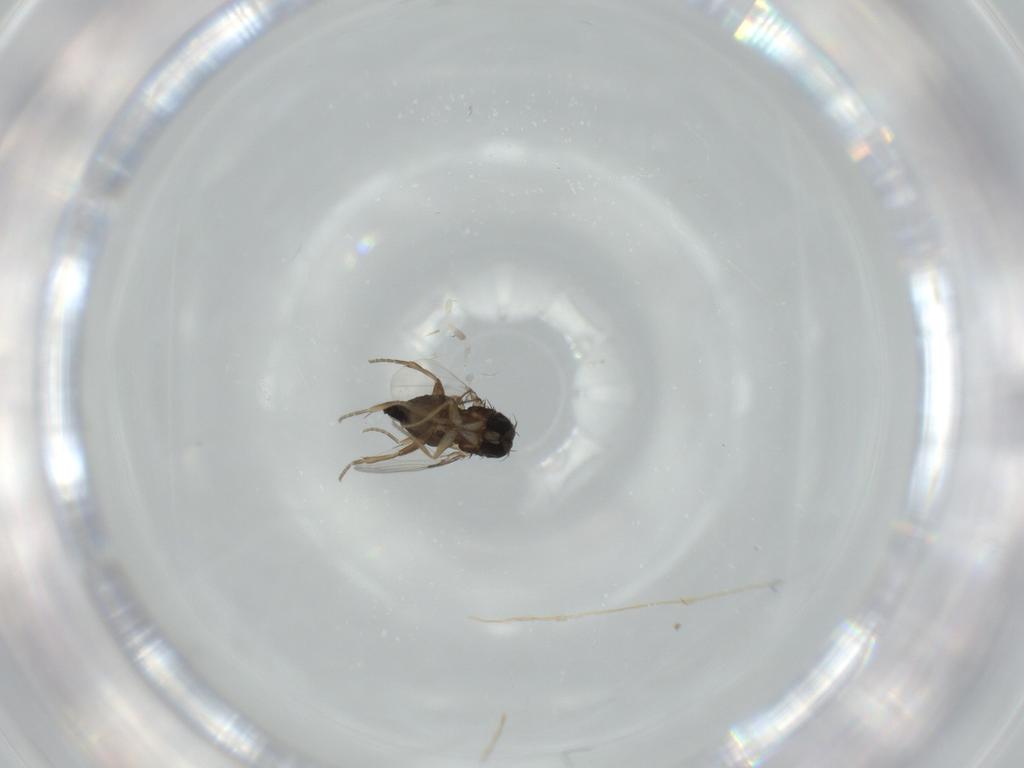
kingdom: Animalia
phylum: Arthropoda
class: Insecta
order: Diptera
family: Phoridae
